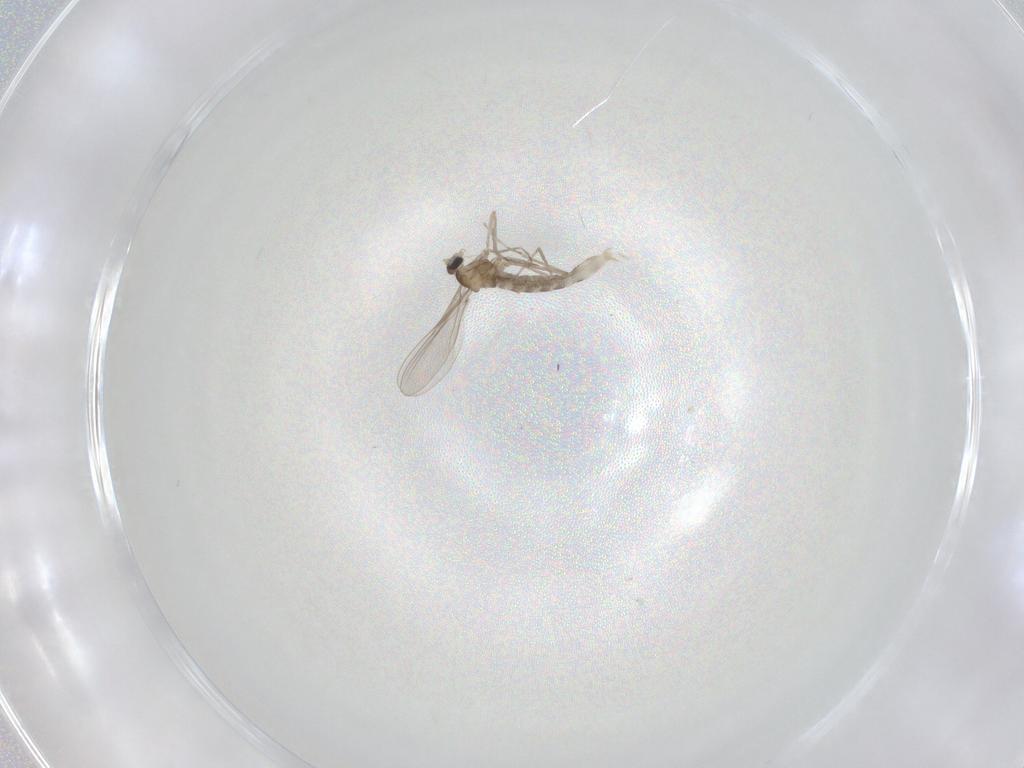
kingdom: Animalia
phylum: Arthropoda
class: Insecta
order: Diptera
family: Cecidomyiidae
